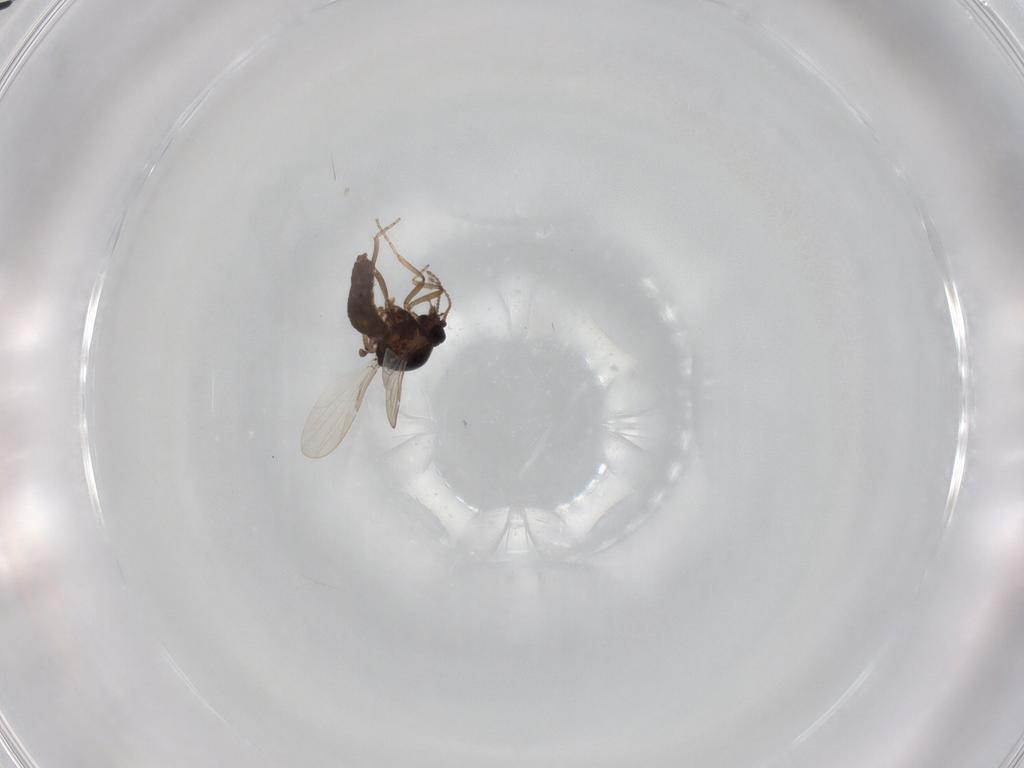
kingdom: Animalia
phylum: Arthropoda
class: Insecta
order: Diptera
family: Ceratopogonidae
